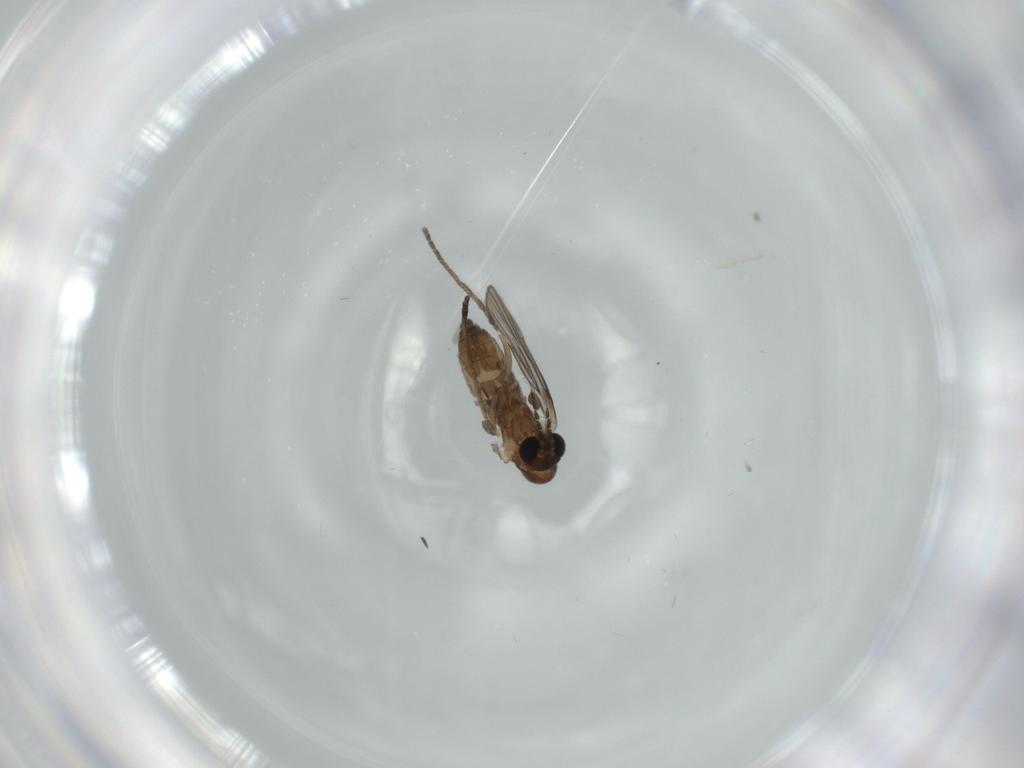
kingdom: Animalia
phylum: Arthropoda
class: Insecta
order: Diptera
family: Psychodidae
